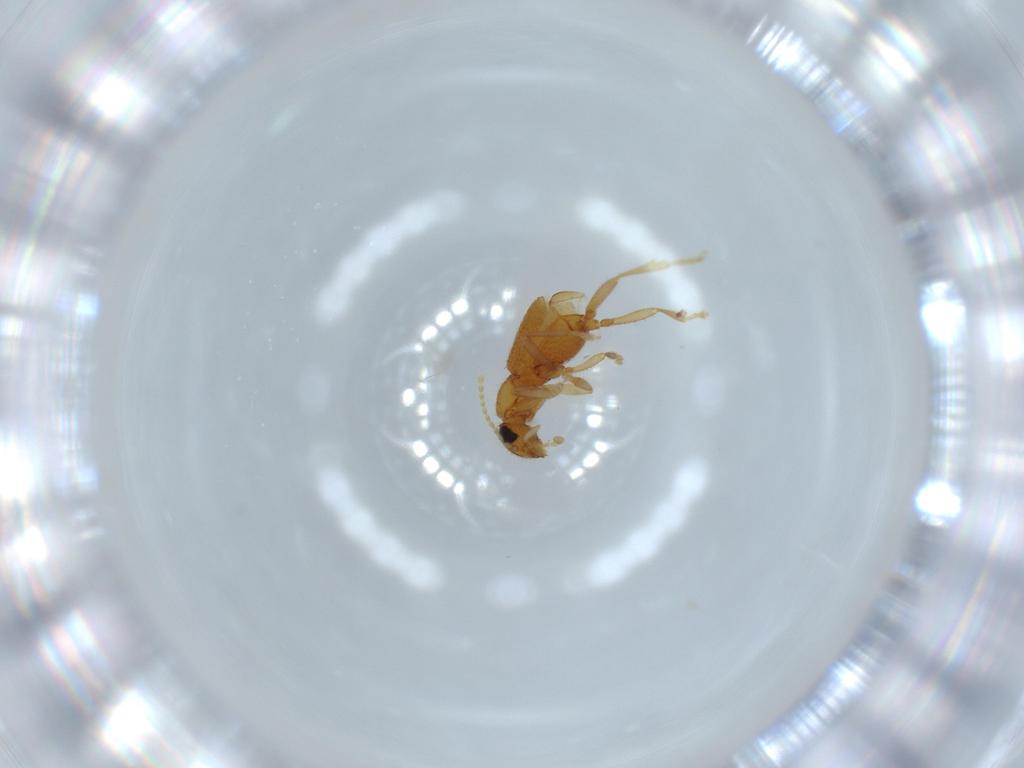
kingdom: Animalia
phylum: Arthropoda
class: Insecta
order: Coleoptera
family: Staphylinidae
